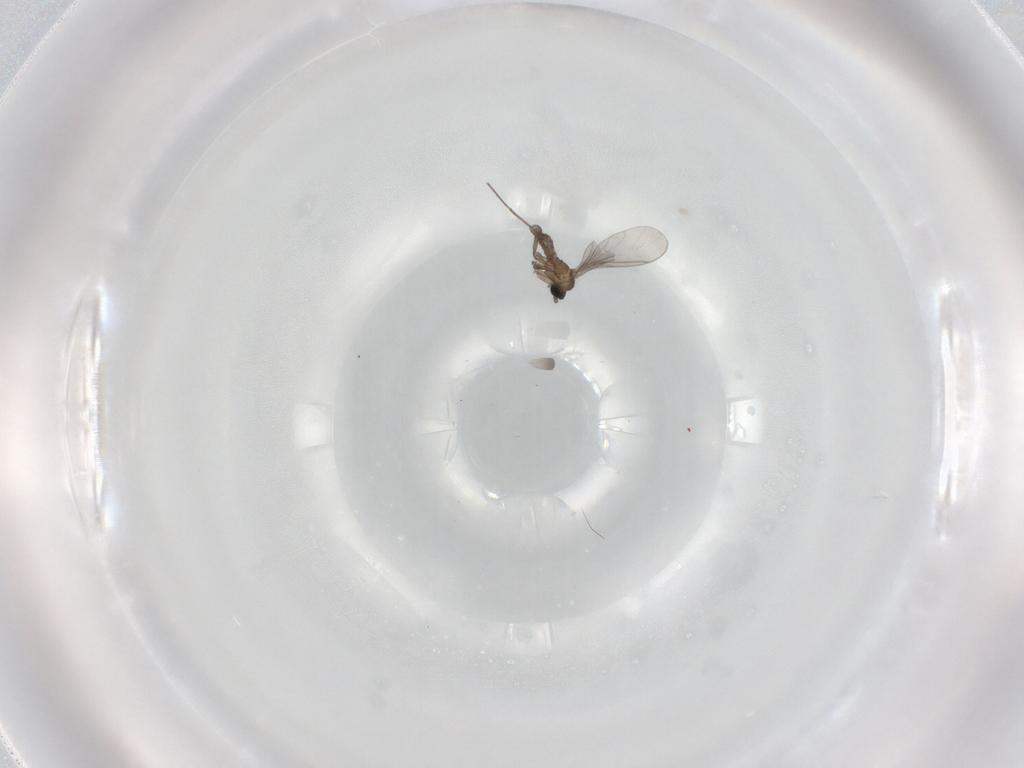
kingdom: Animalia
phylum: Arthropoda
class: Insecta
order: Diptera
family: Sciaridae
